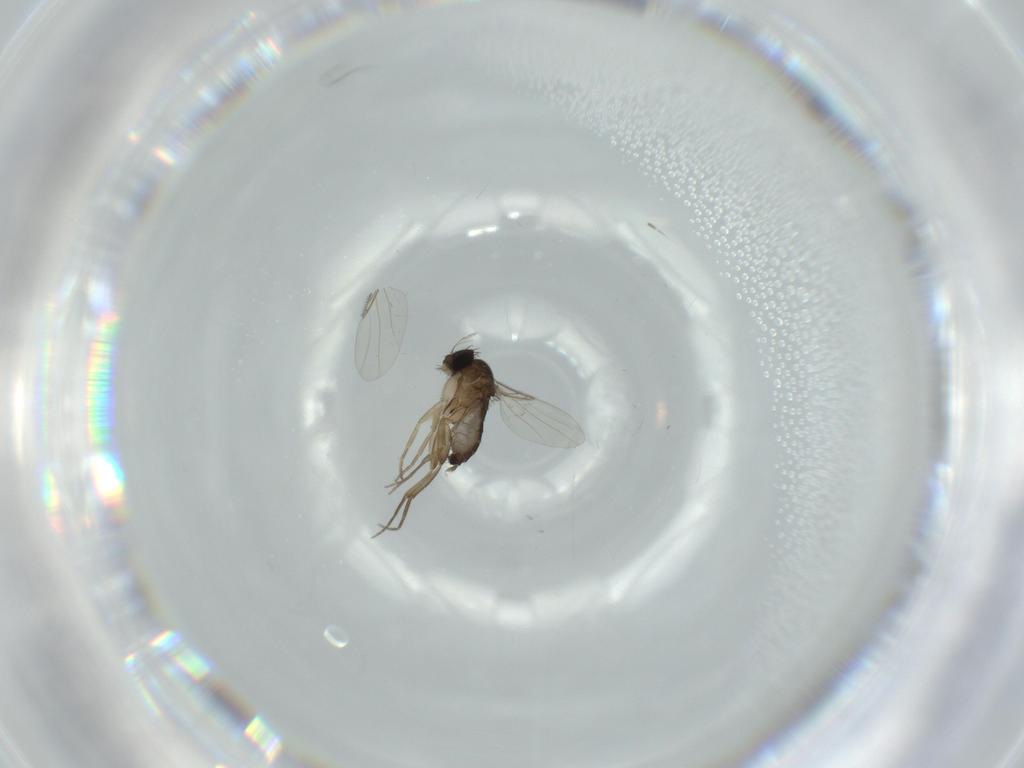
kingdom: Animalia
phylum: Arthropoda
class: Insecta
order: Diptera
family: Phoridae
